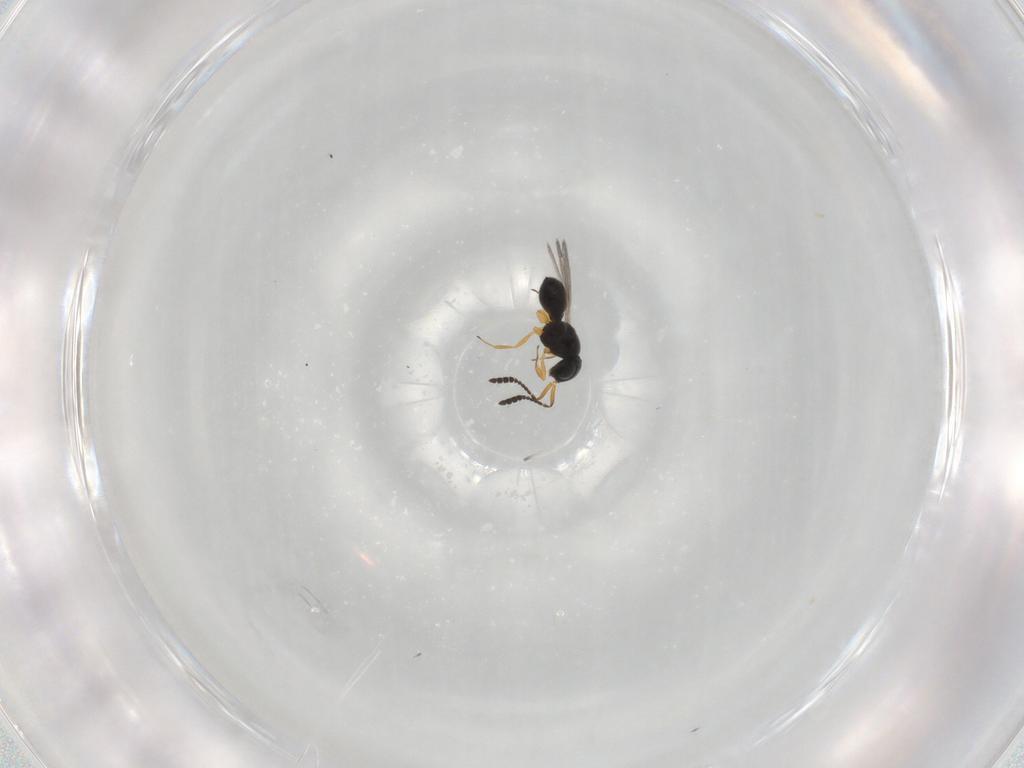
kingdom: Animalia
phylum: Arthropoda
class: Insecta
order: Hymenoptera
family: Scelionidae
